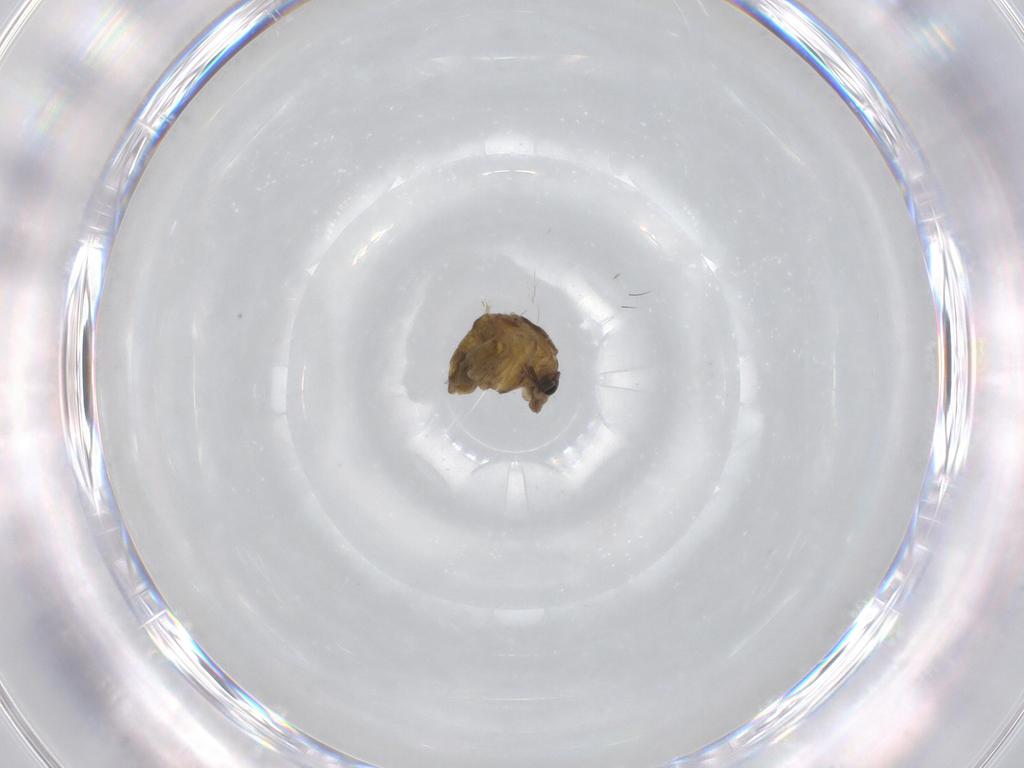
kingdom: Animalia
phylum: Arthropoda
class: Insecta
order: Diptera
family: Cecidomyiidae
